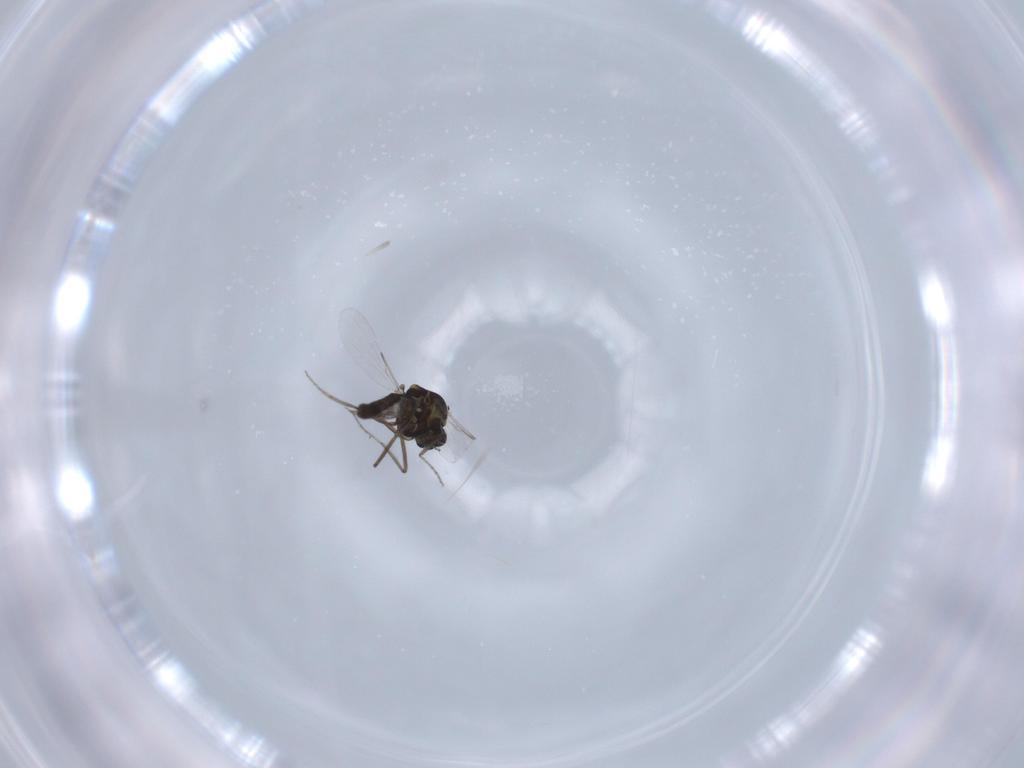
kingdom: Animalia
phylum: Arthropoda
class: Insecta
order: Diptera
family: Ceratopogonidae
